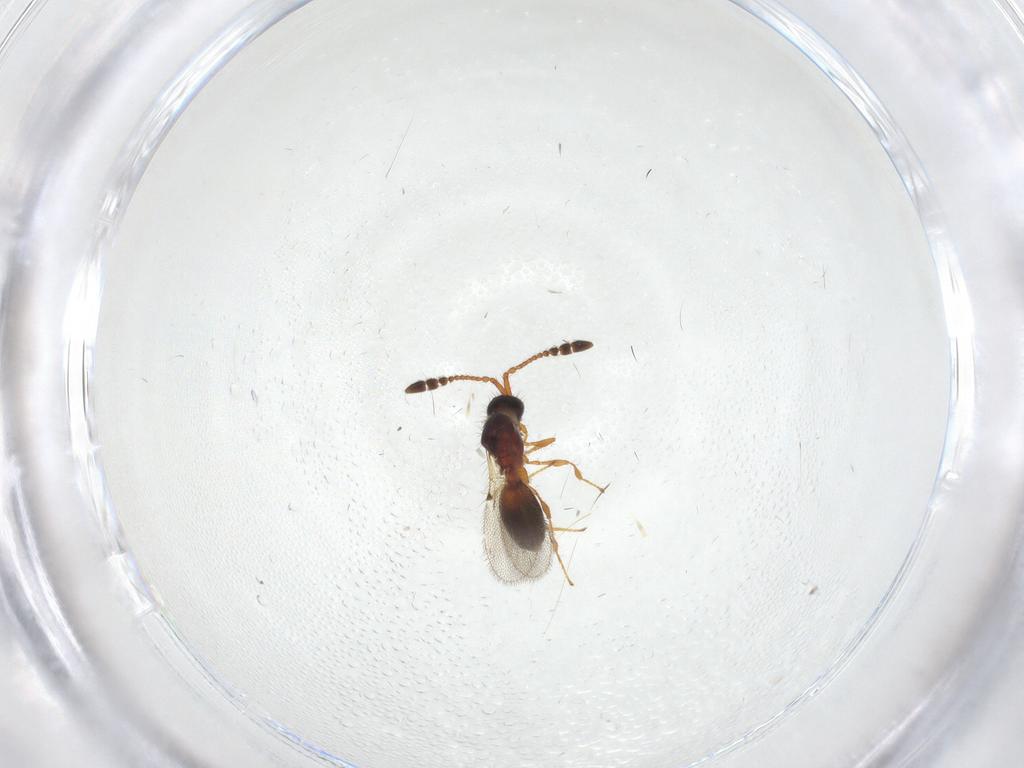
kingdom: Animalia
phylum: Arthropoda
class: Insecta
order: Hymenoptera
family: Diapriidae
